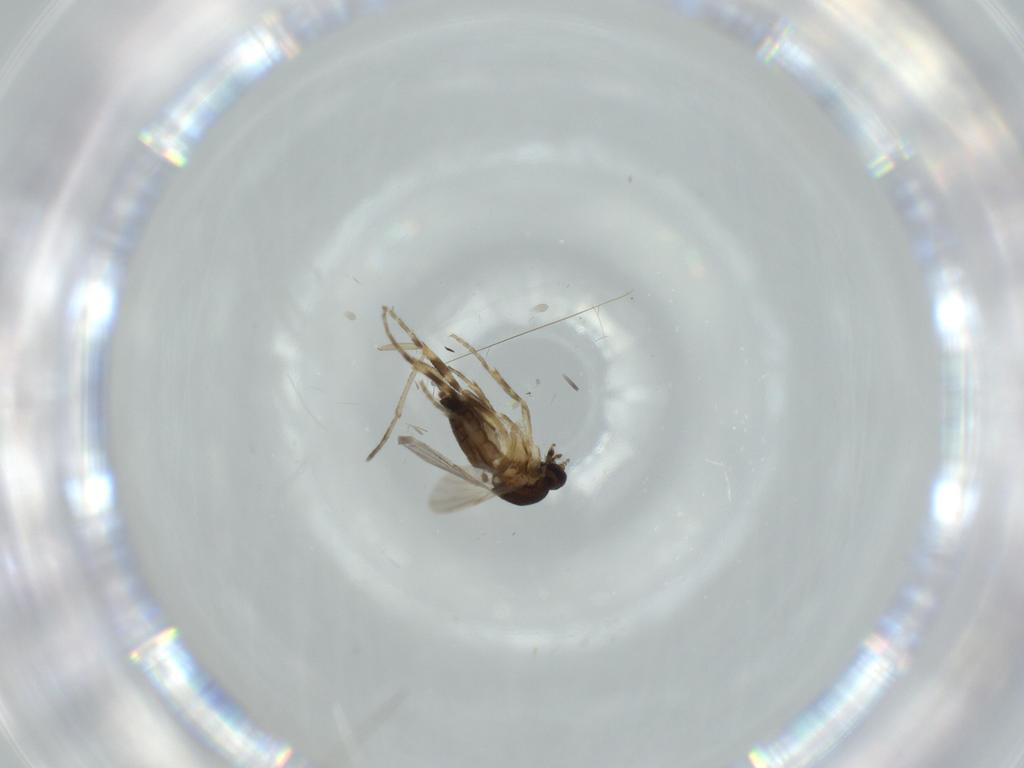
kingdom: Animalia
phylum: Arthropoda
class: Insecta
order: Diptera
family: Ceratopogonidae
